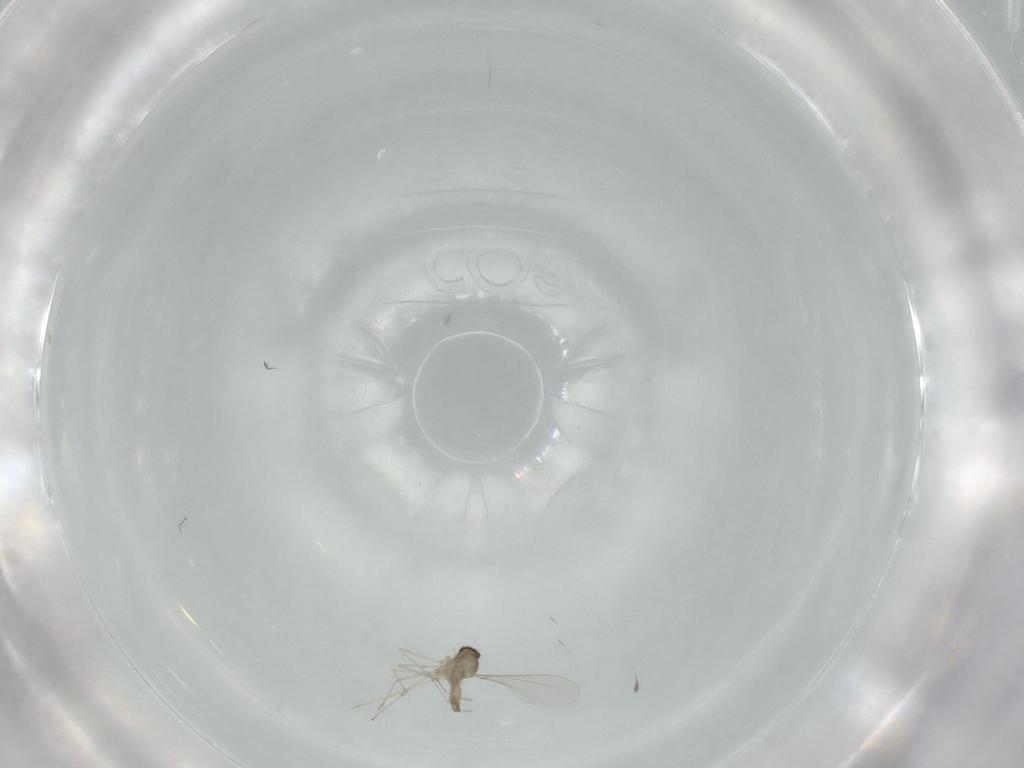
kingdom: Animalia
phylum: Arthropoda
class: Insecta
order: Diptera
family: Cecidomyiidae
